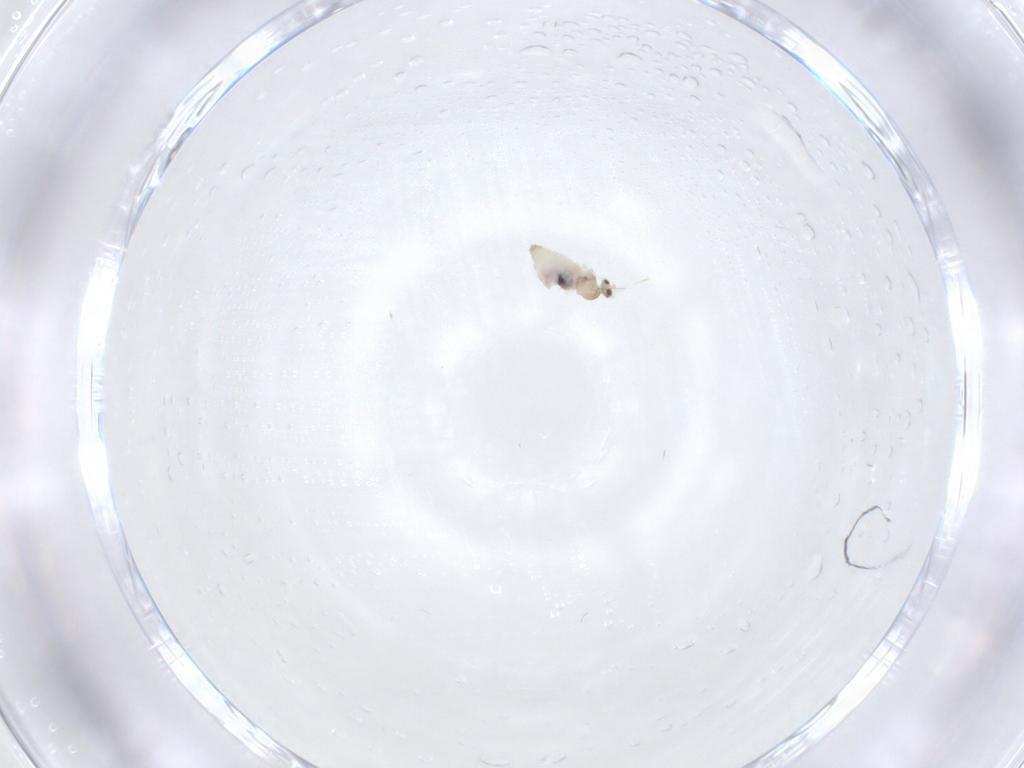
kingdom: Animalia
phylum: Arthropoda
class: Insecta
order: Diptera
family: Cecidomyiidae
